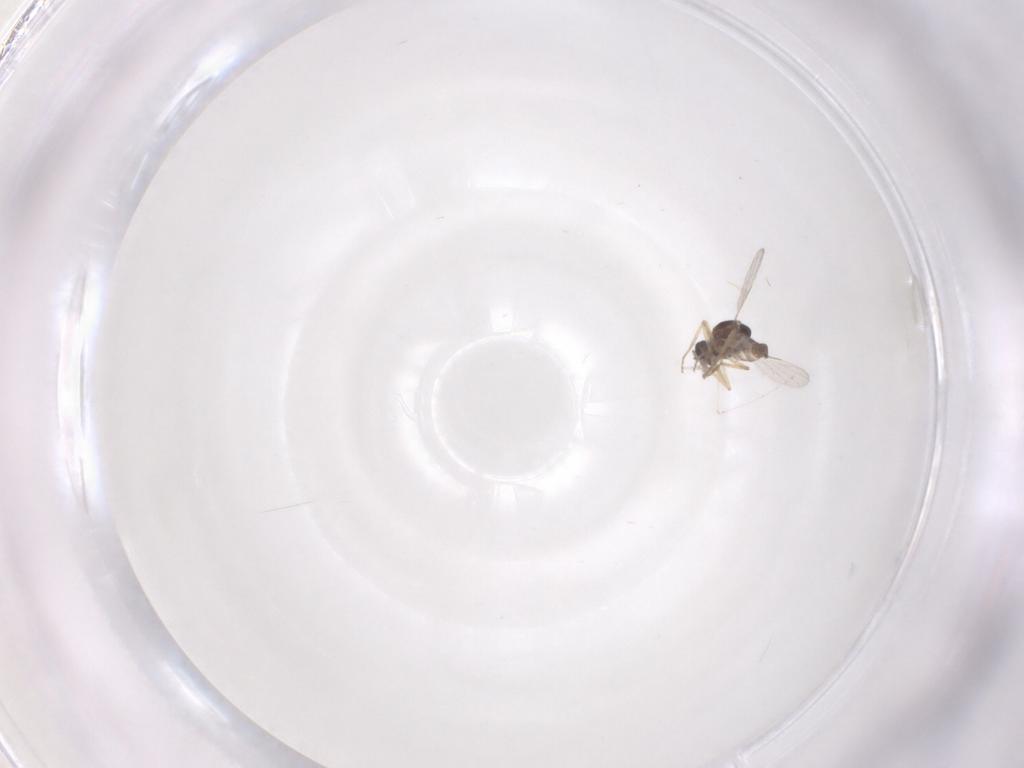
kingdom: Animalia
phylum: Arthropoda
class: Insecta
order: Diptera
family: Ceratopogonidae
